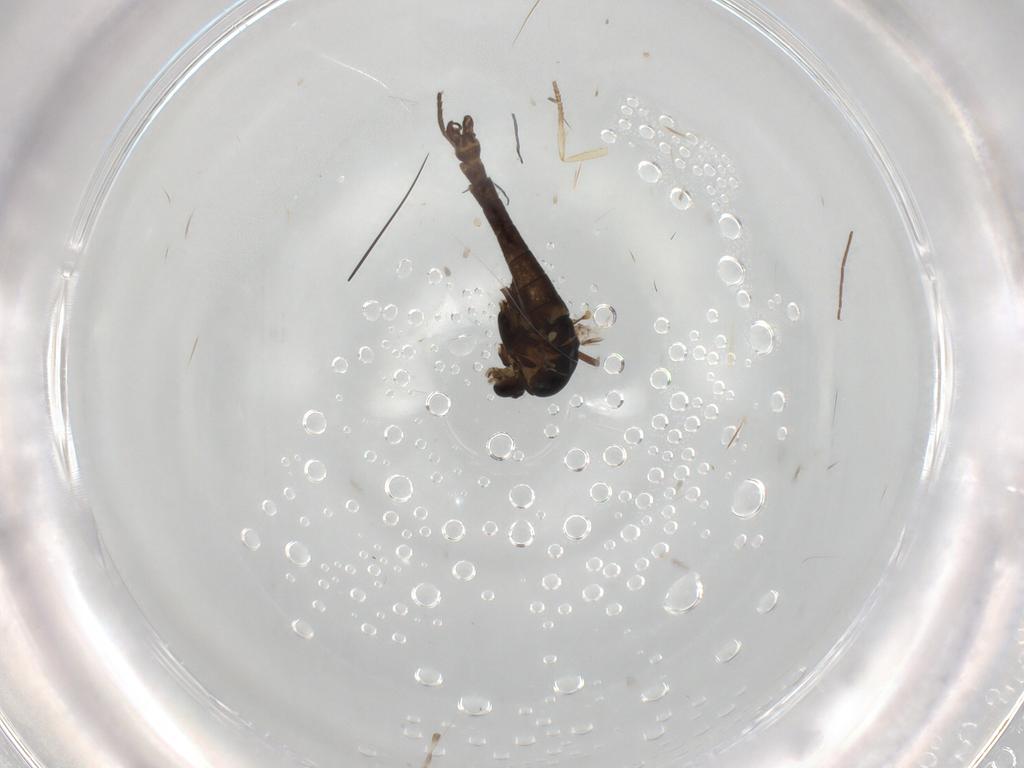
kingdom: Animalia
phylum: Arthropoda
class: Insecta
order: Diptera
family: Chironomidae
